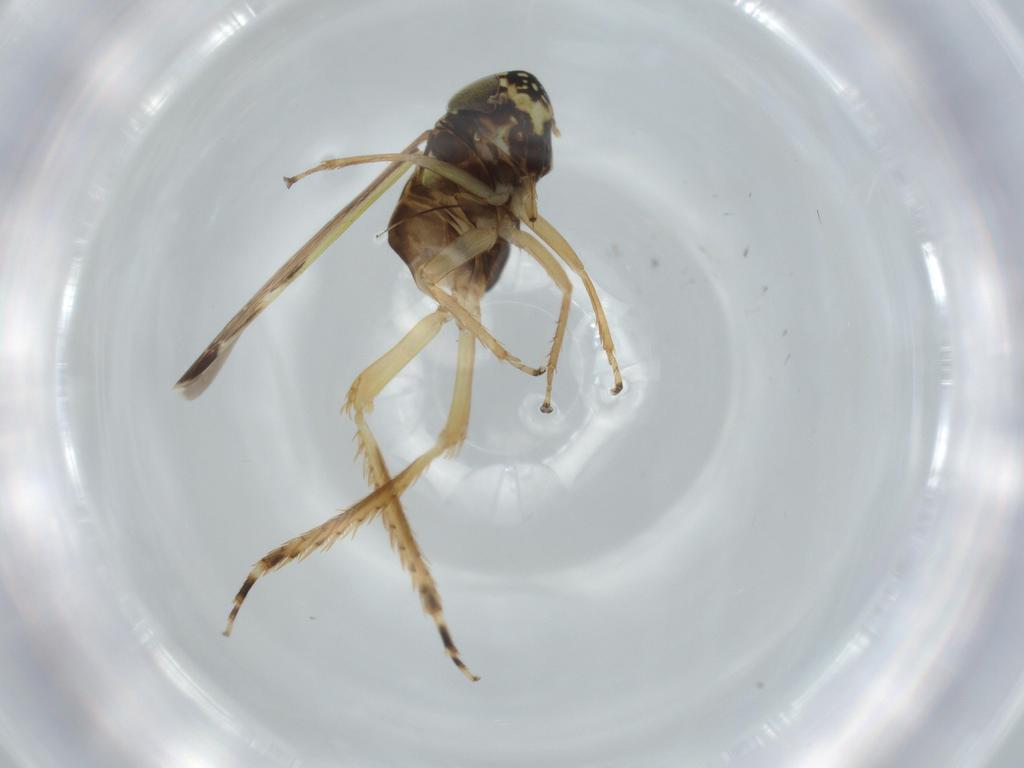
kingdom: Animalia
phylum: Arthropoda
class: Insecta
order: Hemiptera
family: Cicadellidae
